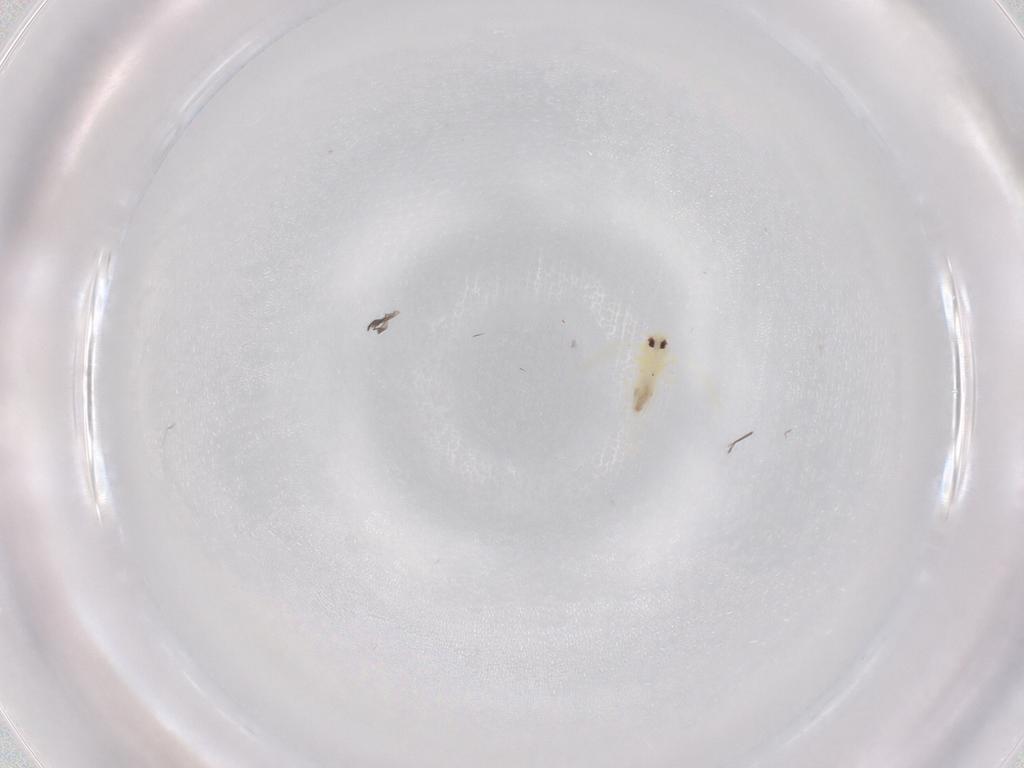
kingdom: Animalia
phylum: Arthropoda
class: Insecta
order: Hemiptera
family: Aleyrodidae
